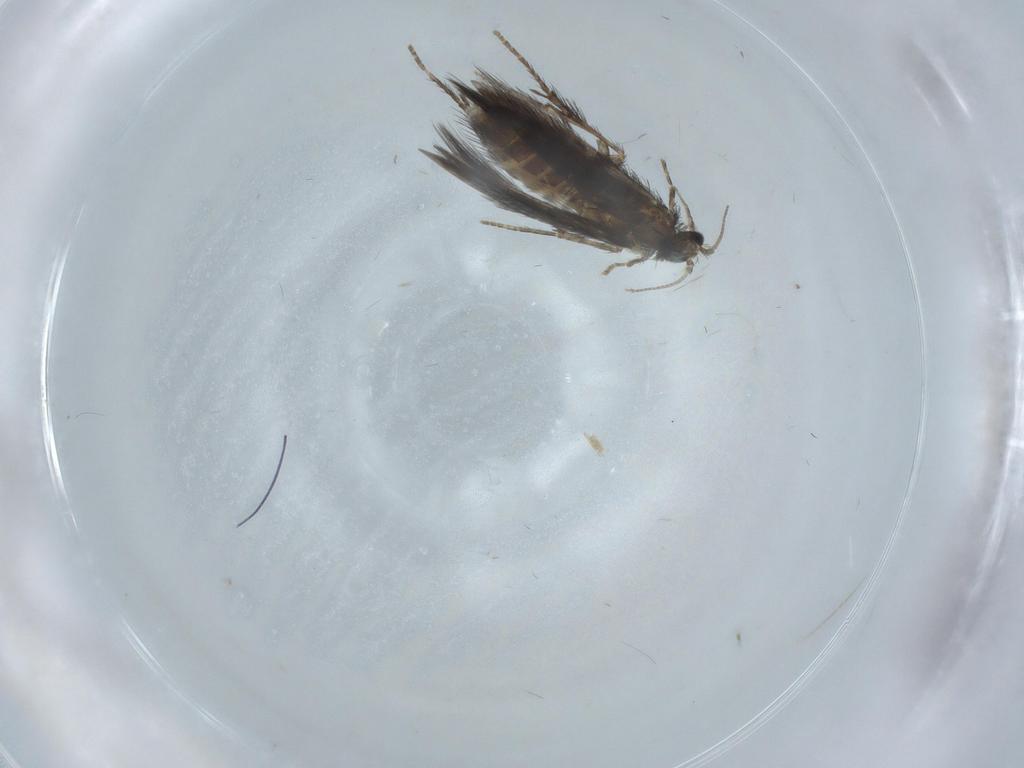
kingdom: Animalia
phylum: Arthropoda
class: Insecta
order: Trichoptera
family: Hydroptilidae
